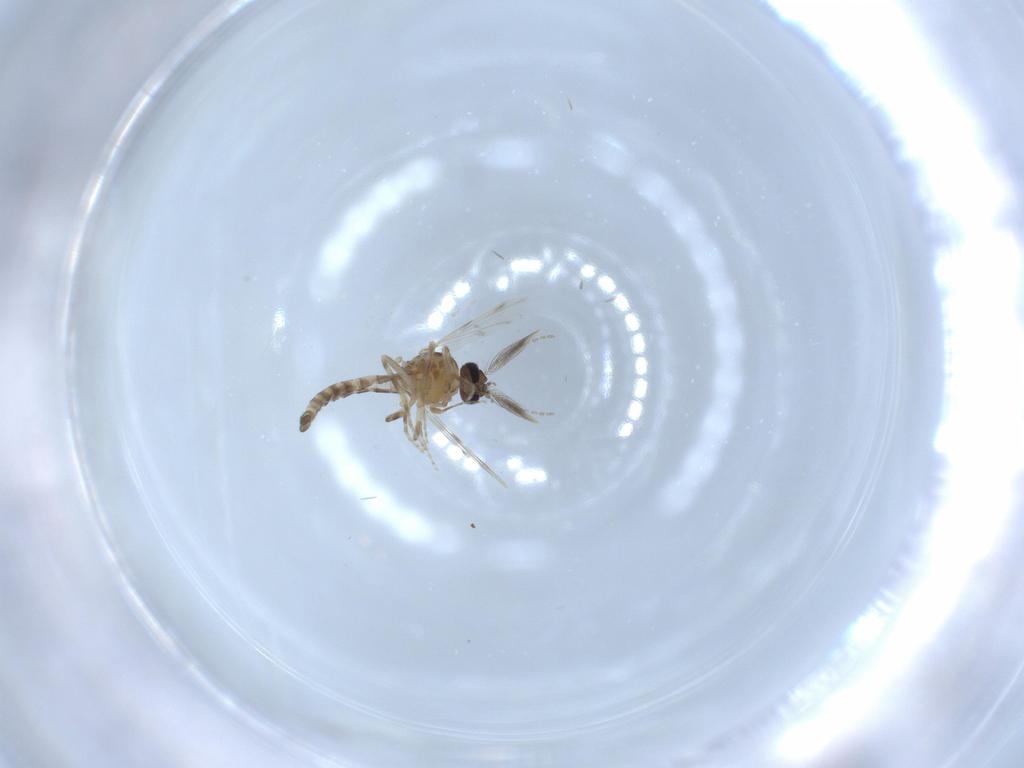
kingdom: Animalia
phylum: Arthropoda
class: Insecta
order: Diptera
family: Ceratopogonidae
